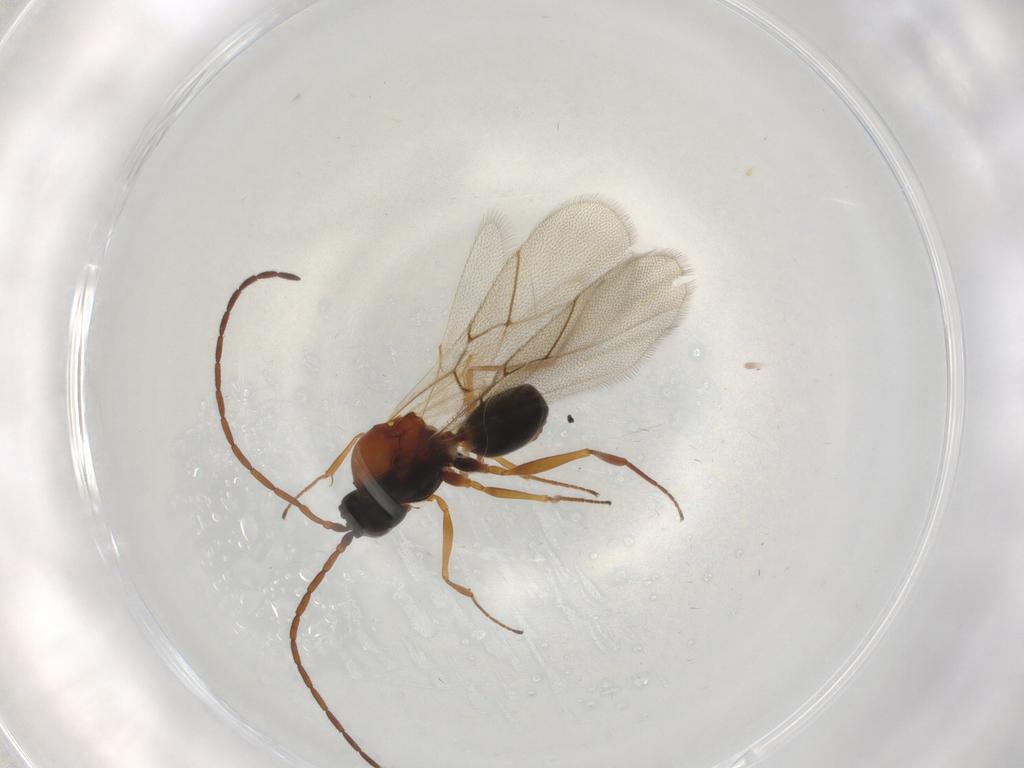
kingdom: Animalia
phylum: Arthropoda
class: Insecta
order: Hymenoptera
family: Figitidae
